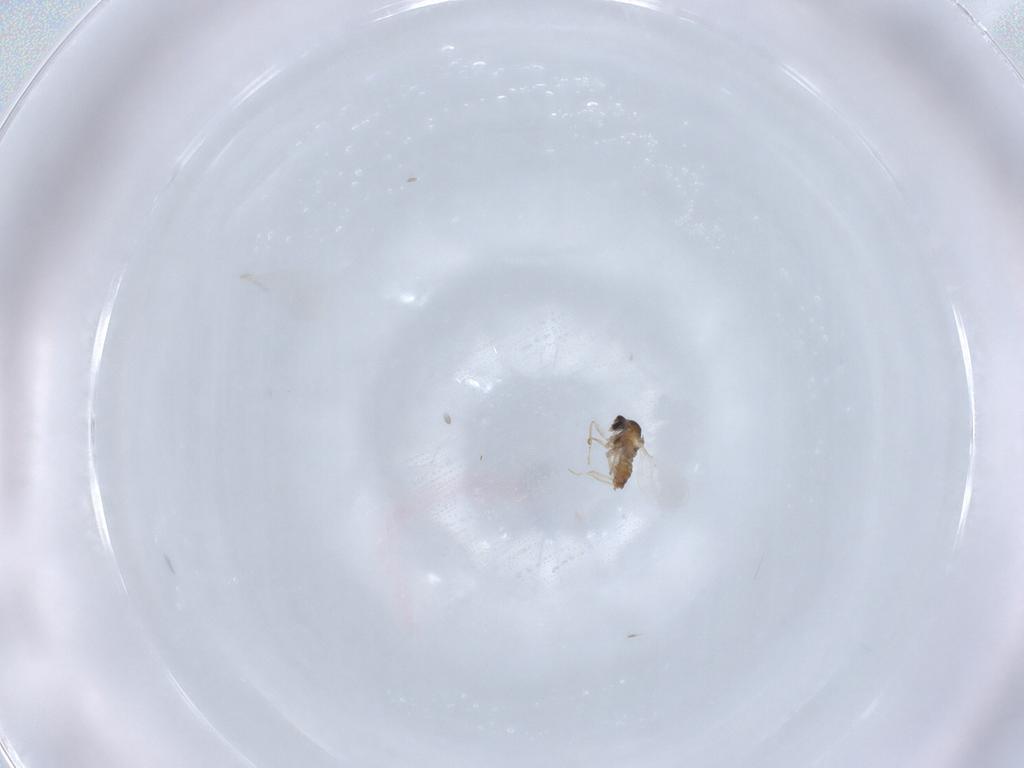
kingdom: Animalia
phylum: Arthropoda
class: Insecta
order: Diptera
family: Cecidomyiidae
